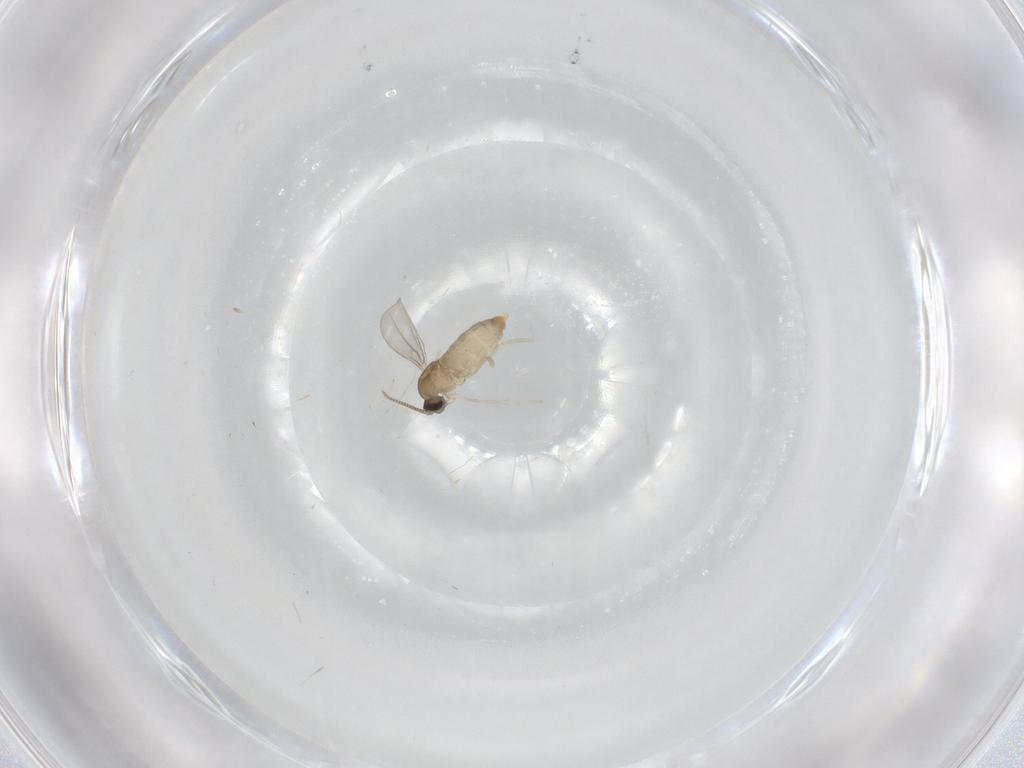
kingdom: Animalia
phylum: Arthropoda
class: Insecta
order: Diptera
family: Cecidomyiidae
